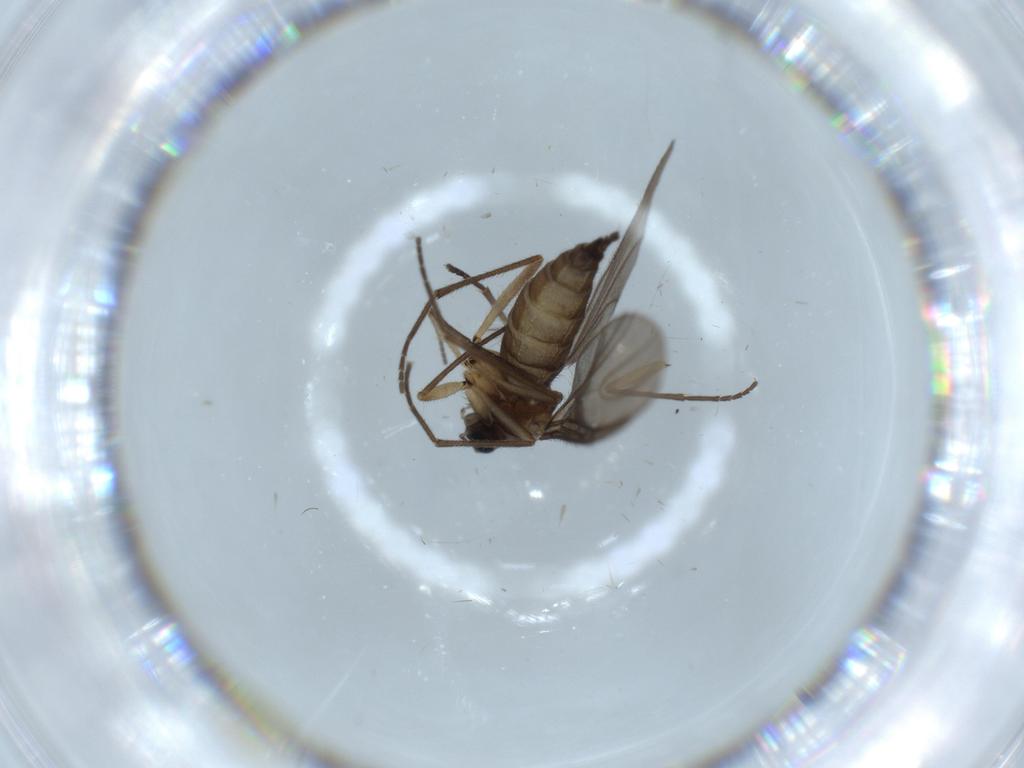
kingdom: Animalia
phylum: Arthropoda
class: Insecta
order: Diptera
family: Sciaridae
